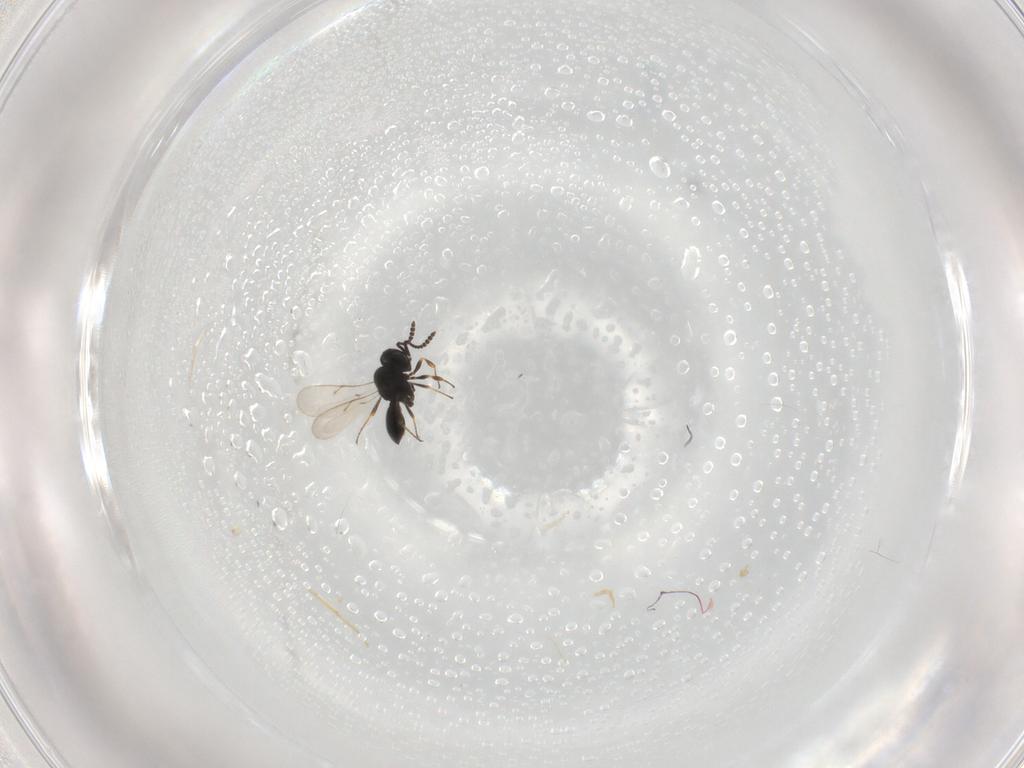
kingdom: Animalia
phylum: Arthropoda
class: Insecta
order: Hymenoptera
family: Scelionidae
